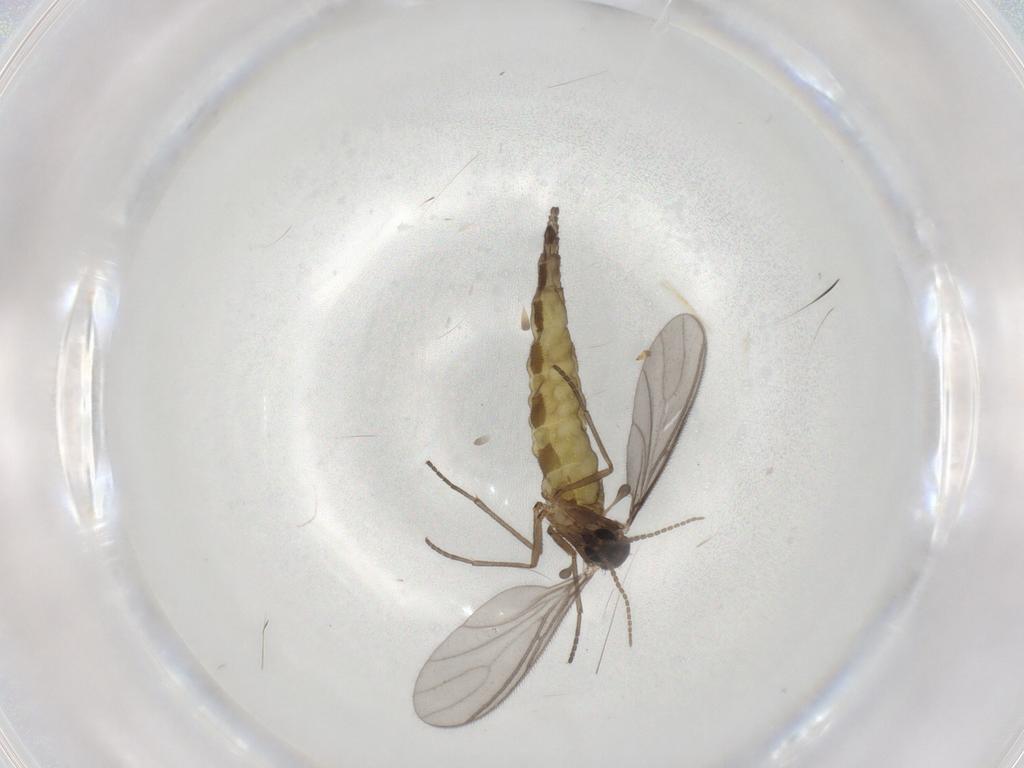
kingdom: Animalia
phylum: Arthropoda
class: Insecta
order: Diptera
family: Sciaridae
